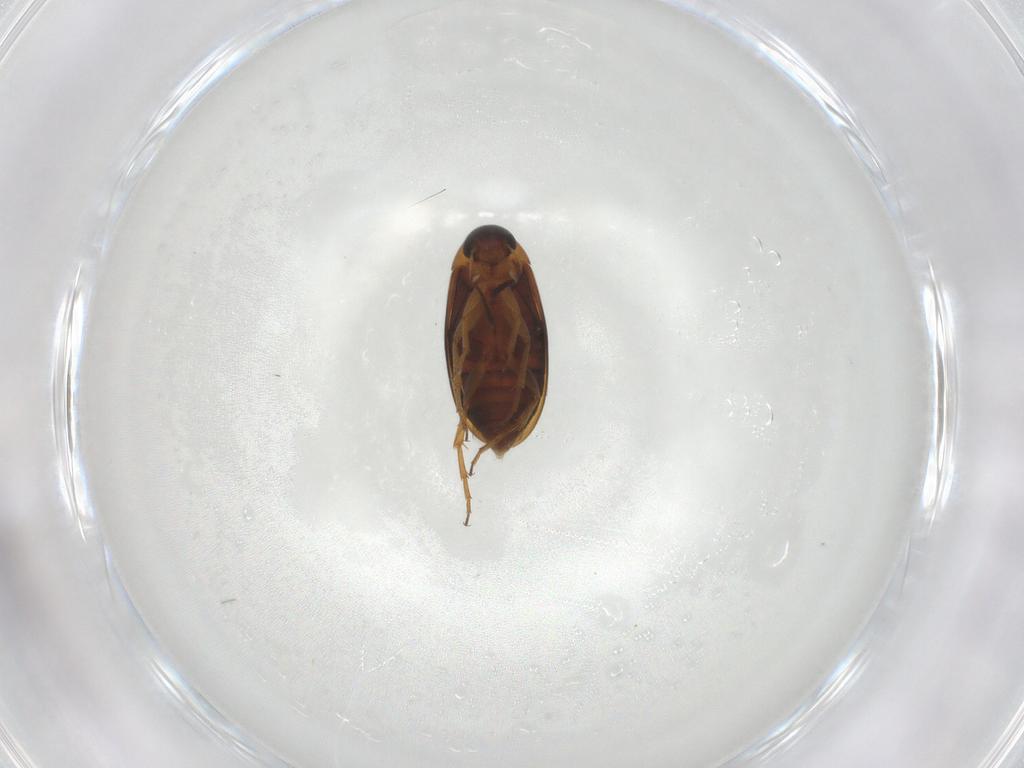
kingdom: Animalia
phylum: Arthropoda
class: Insecta
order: Coleoptera
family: Scraptiidae
